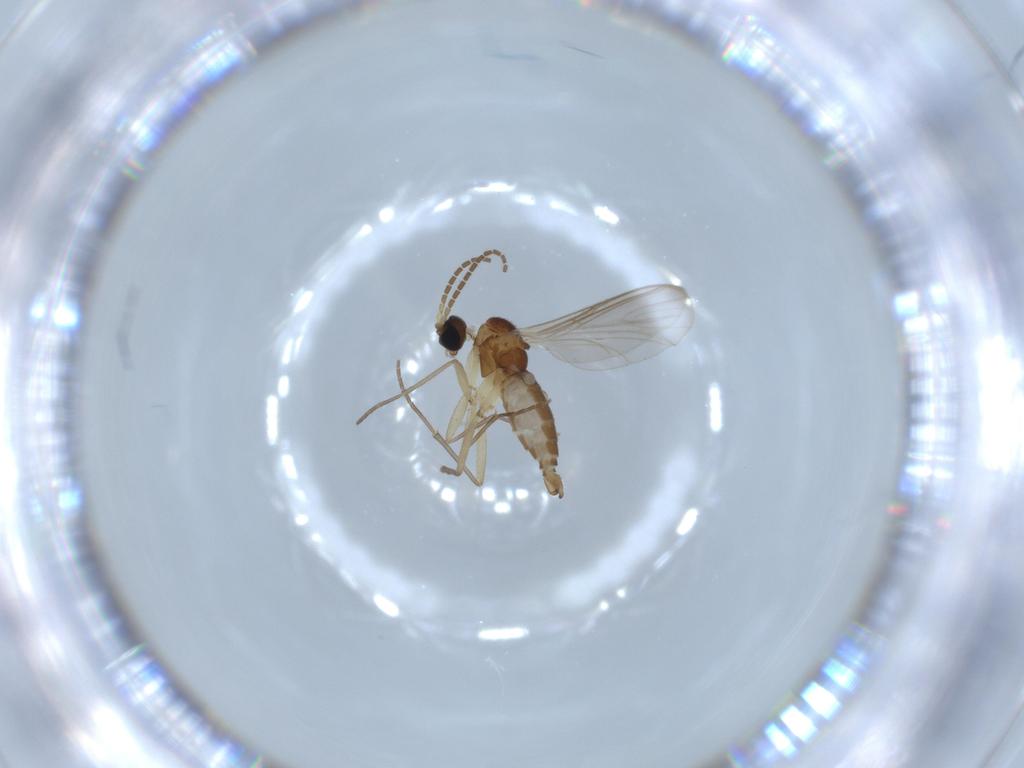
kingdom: Animalia
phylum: Arthropoda
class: Insecta
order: Diptera
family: Sciaridae
